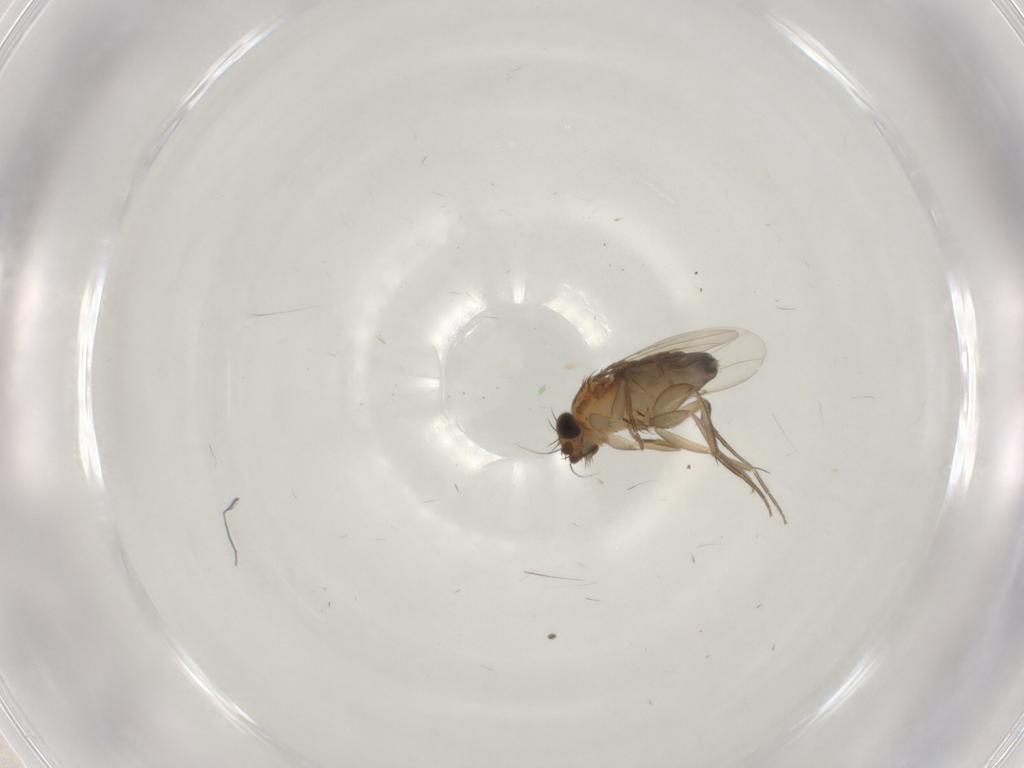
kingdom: Animalia
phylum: Arthropoda
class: Insecta
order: Diptera
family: Phoridae
